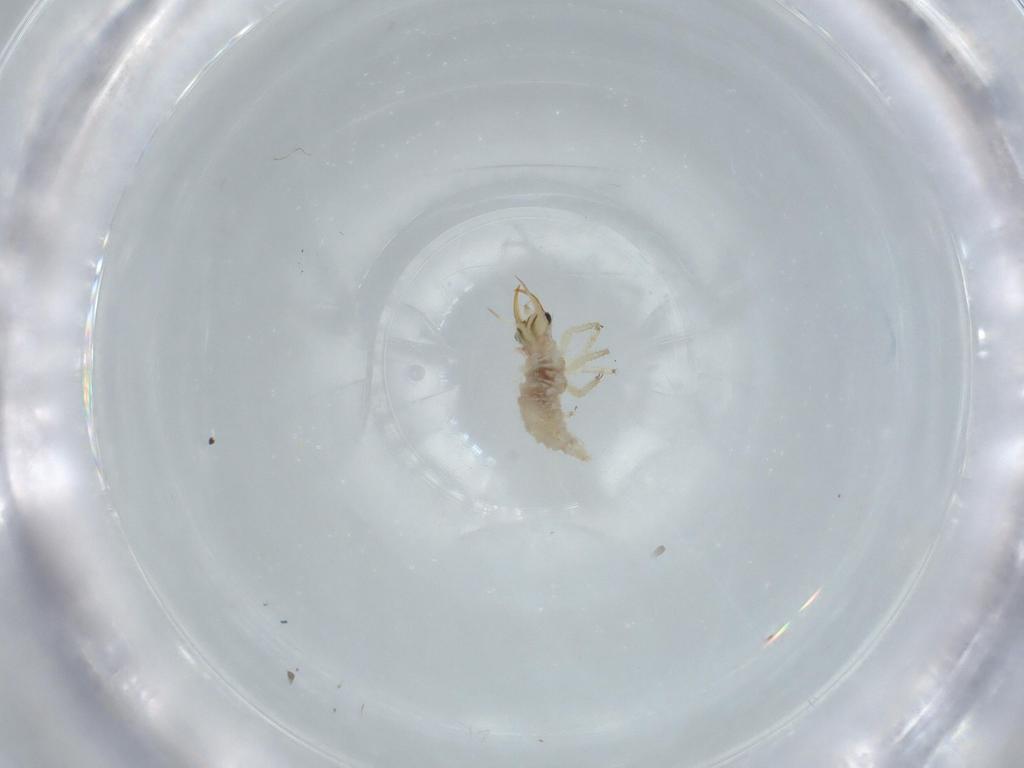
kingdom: Animalia
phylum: Arthropoda
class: Insecta
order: Neuroptera
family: Chrysopidae
